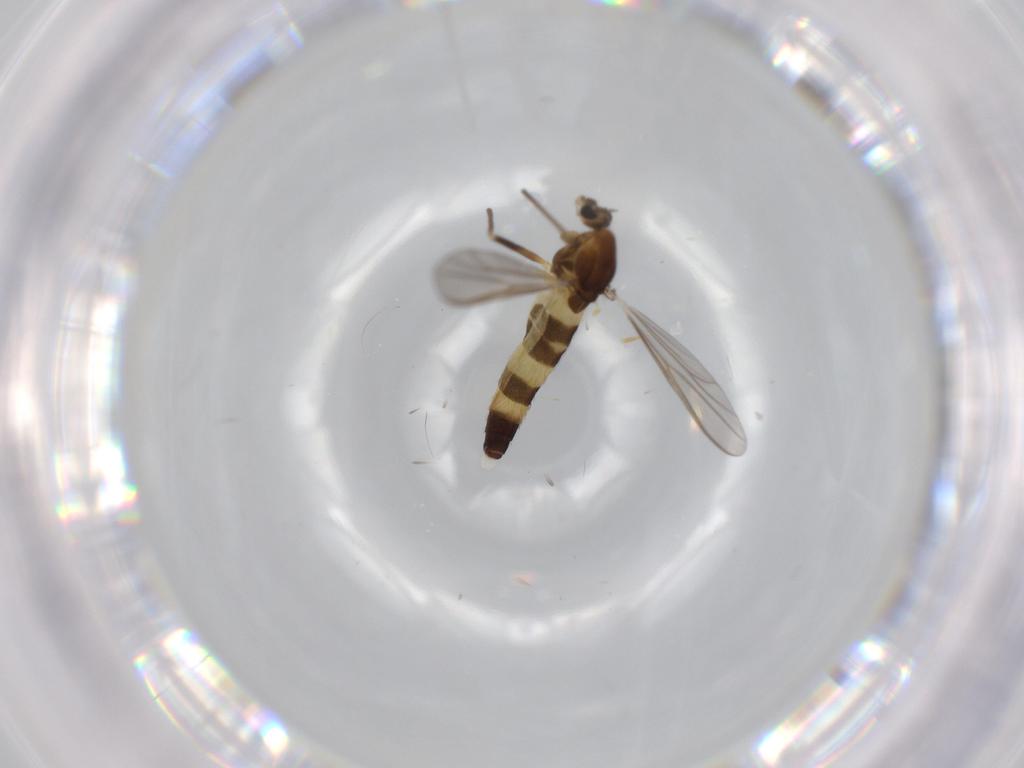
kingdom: Animalia
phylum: Arthropoda
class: Insecta
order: Diptera
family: Chironomidae
